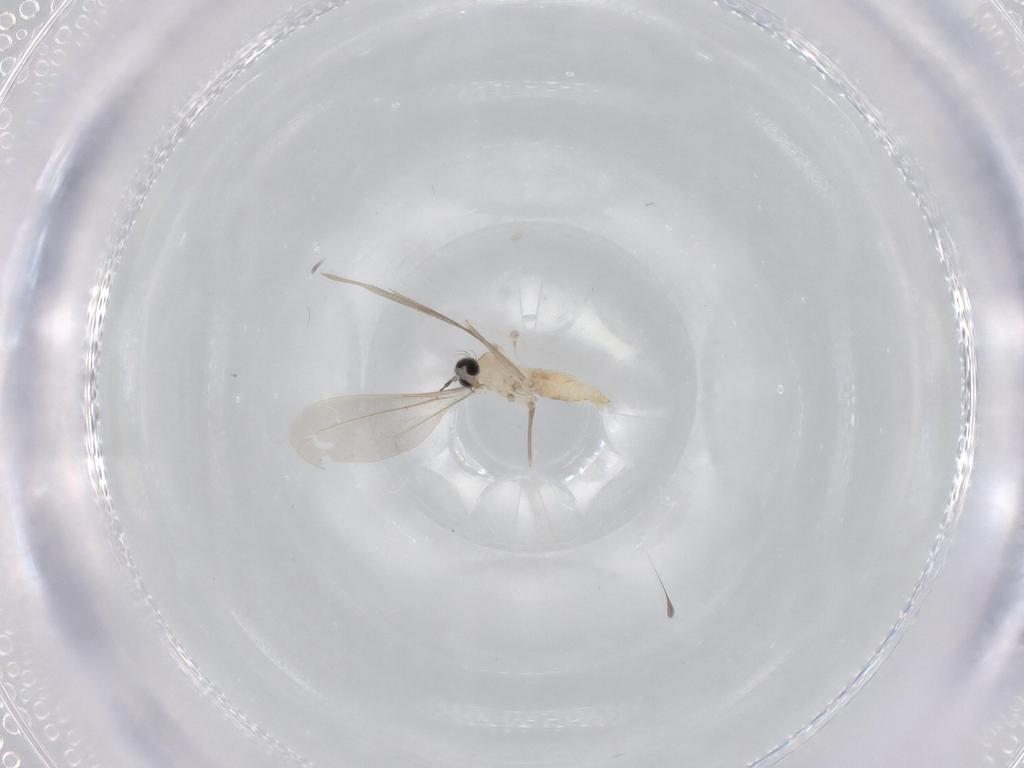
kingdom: Animalia
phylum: Arthropoda
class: Insecta
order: Diptera
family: Cecidomyiidae
